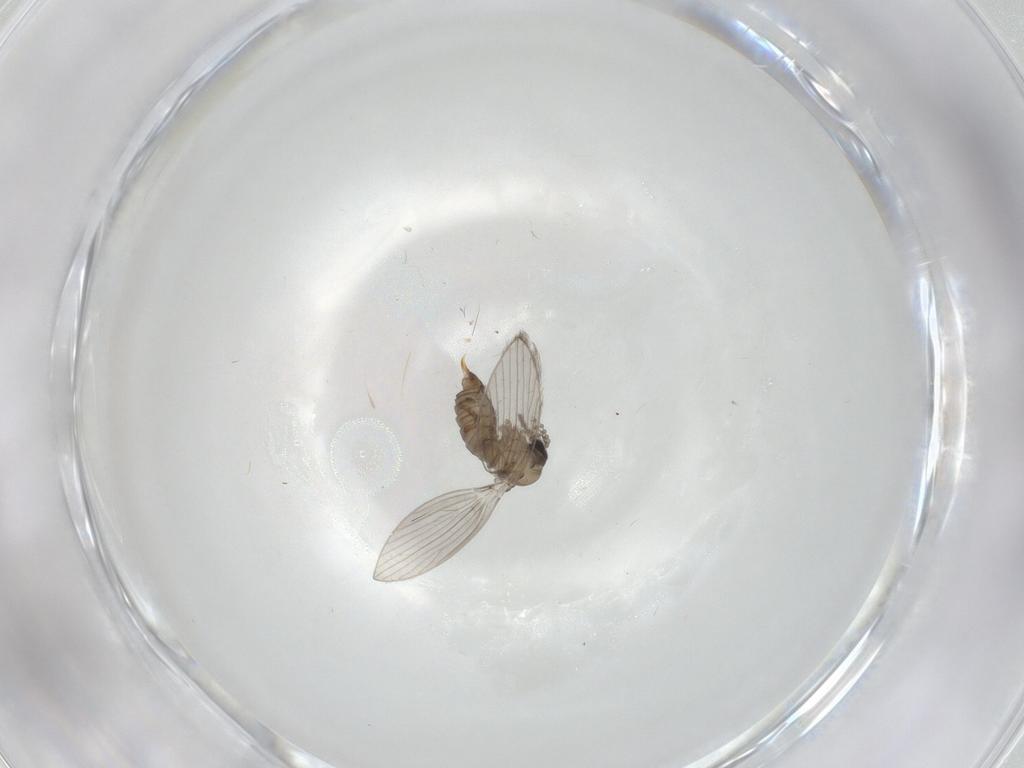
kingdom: Animalia
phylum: Arthropoda
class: Insecta
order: Diptera
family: Psychodidae
